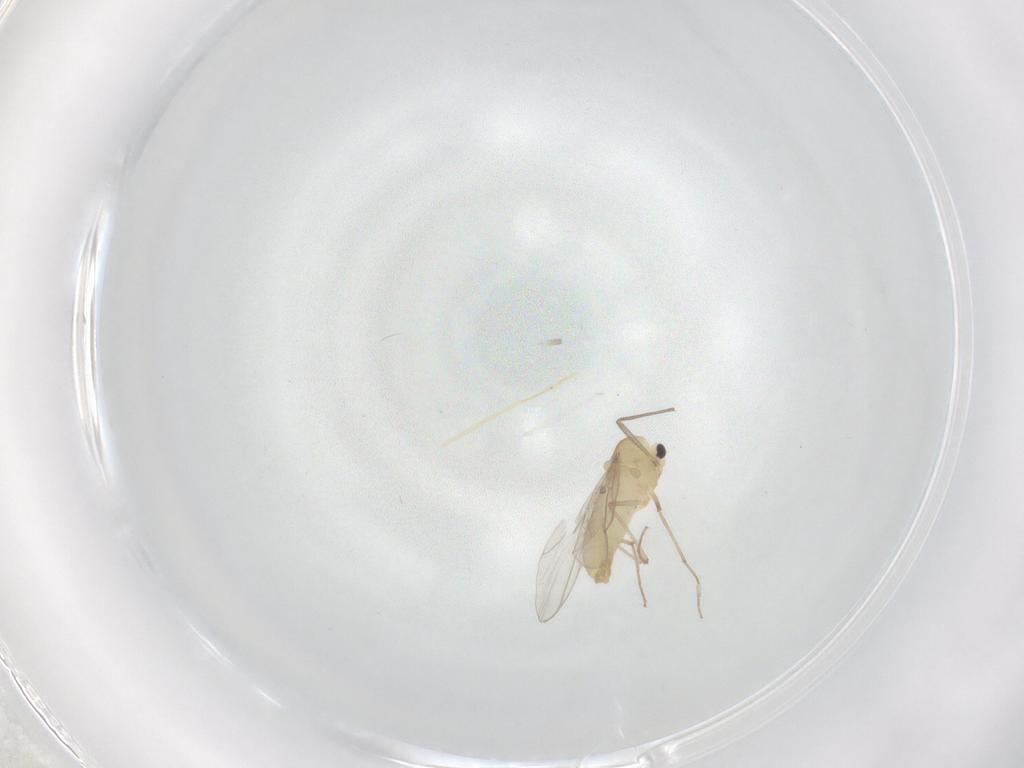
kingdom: Animalia
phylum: Arthropoda
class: Insecta
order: Diptera
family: Chironomidae
